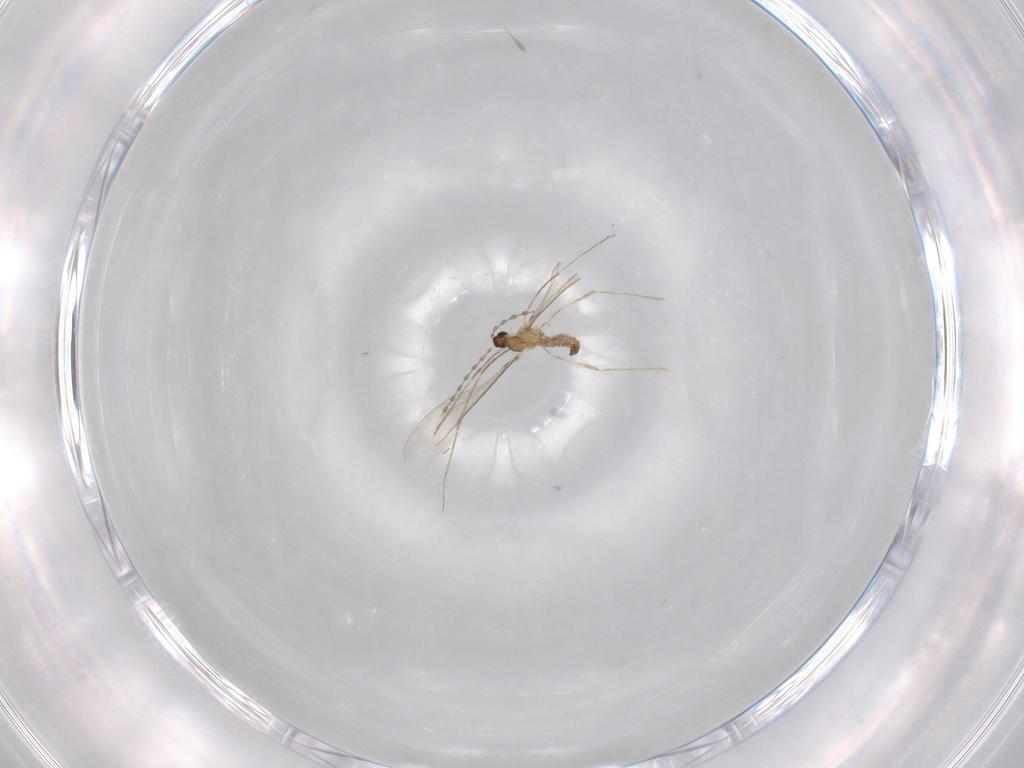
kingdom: Animalia
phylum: Arthropoda
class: Insecta
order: Diptera
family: Cecidomyiidae
